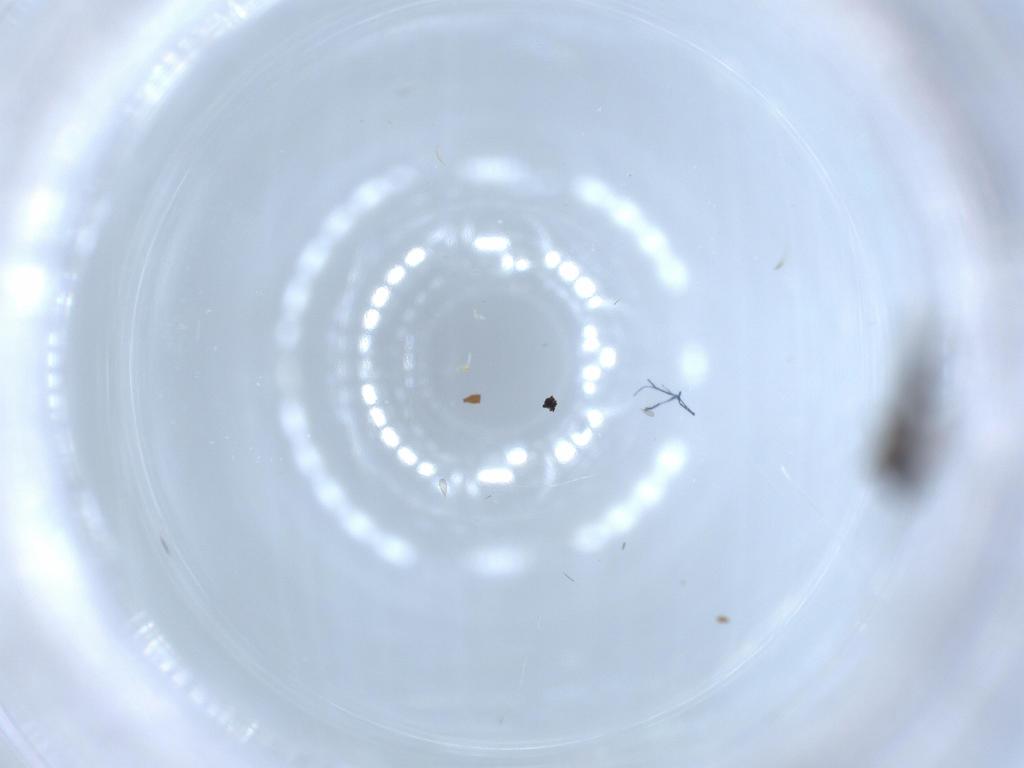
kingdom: Animalia
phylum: Arthropoda
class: Insecta
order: Diptera
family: Sciaridae
